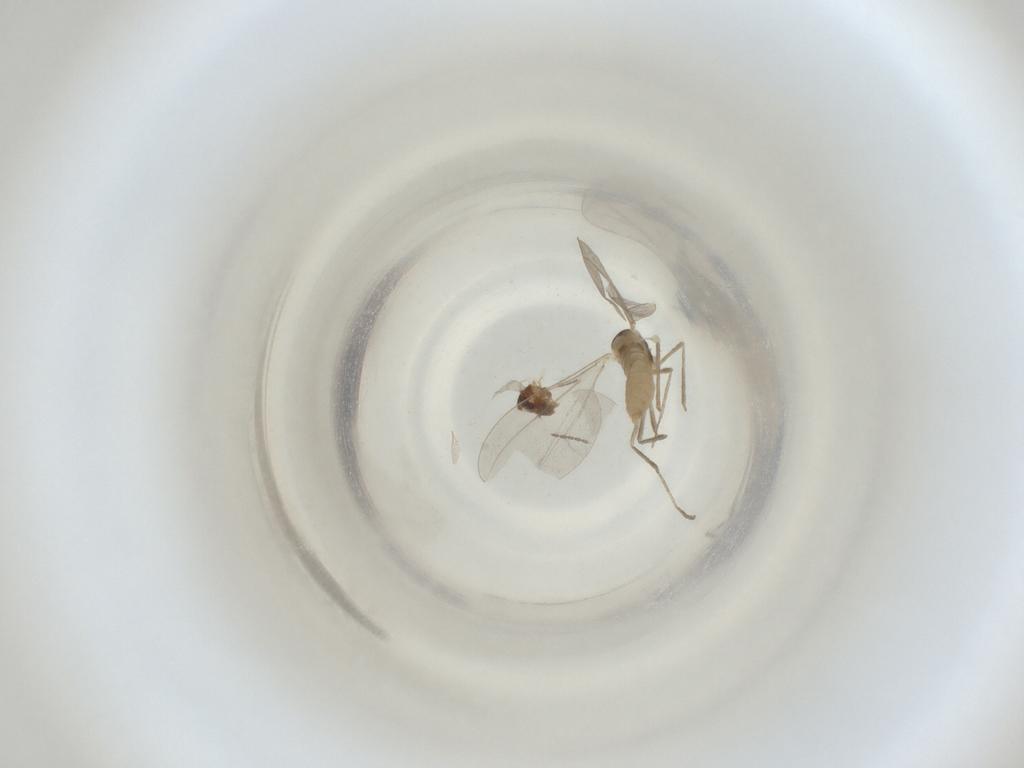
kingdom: Animalia
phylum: Arthropoda
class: Insecta
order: Diptera
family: Cecidomyiidae
